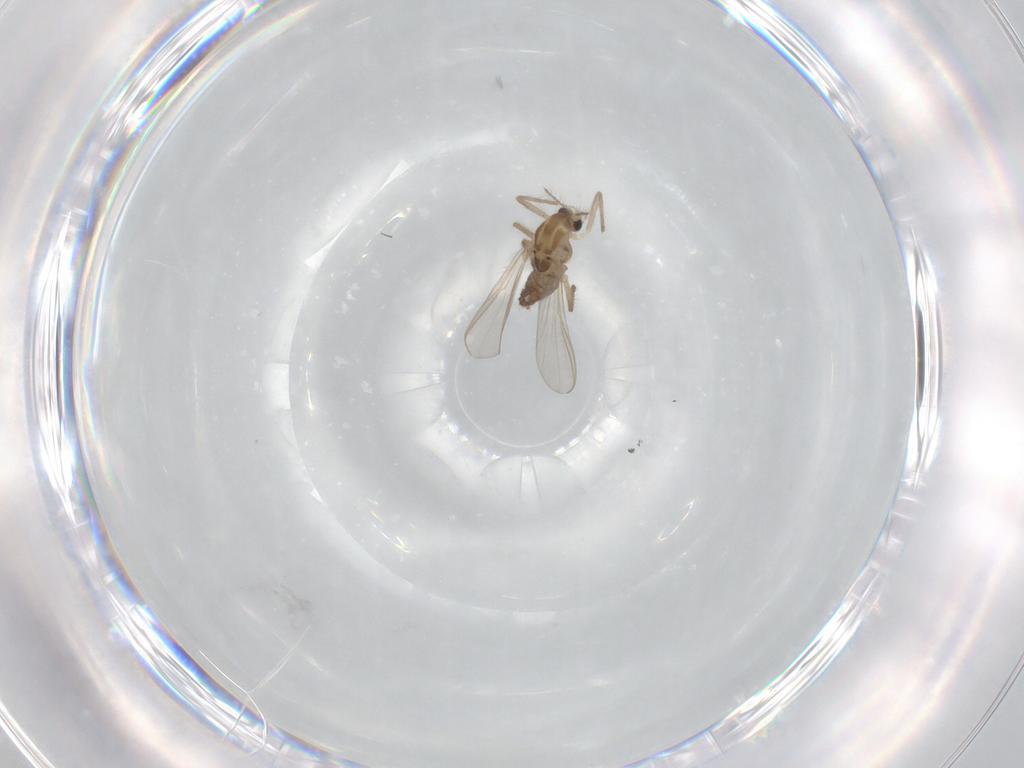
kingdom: Animalia
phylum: Arthropoda
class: Insecta
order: Diptera
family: Chironomidae
